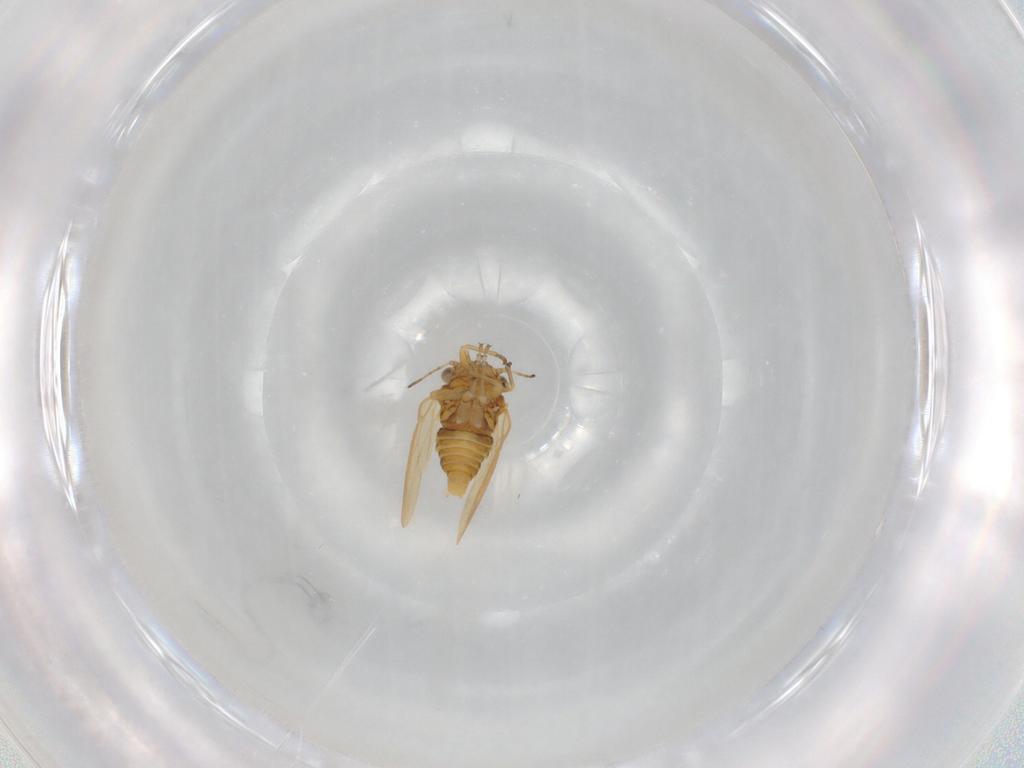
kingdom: Animalia
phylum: Arthropoda
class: Insecta
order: Hemiptera
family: Liviidae
